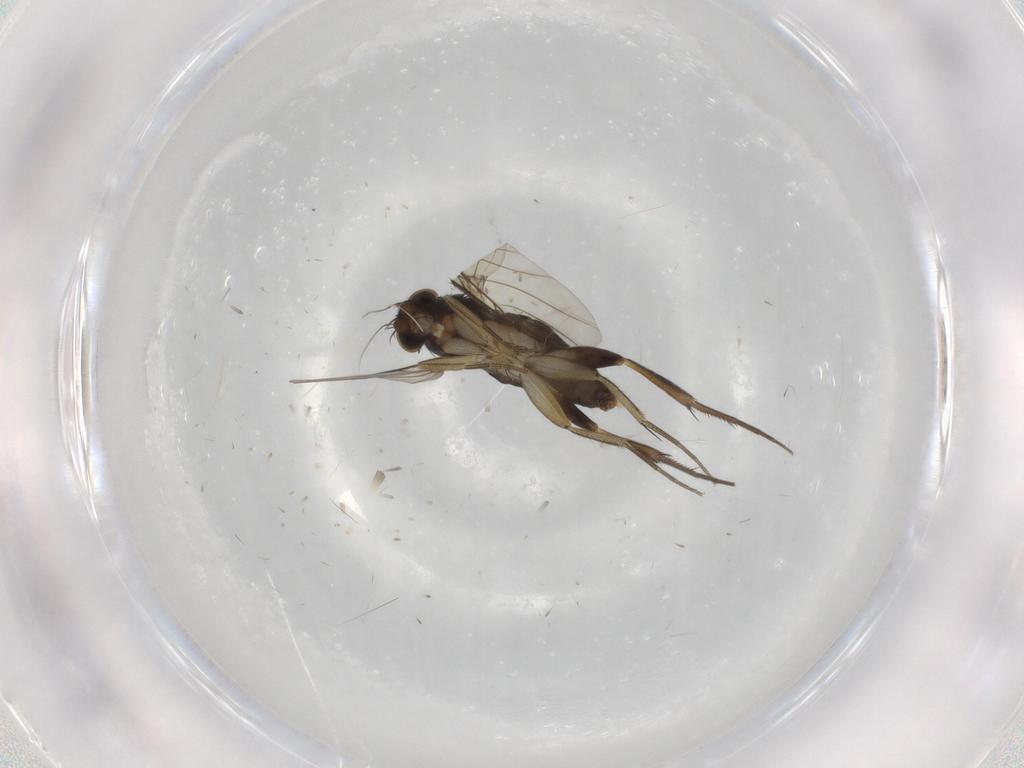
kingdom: Animalia
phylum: Arthropoda
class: Insecta
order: Diptera
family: Phoridae
